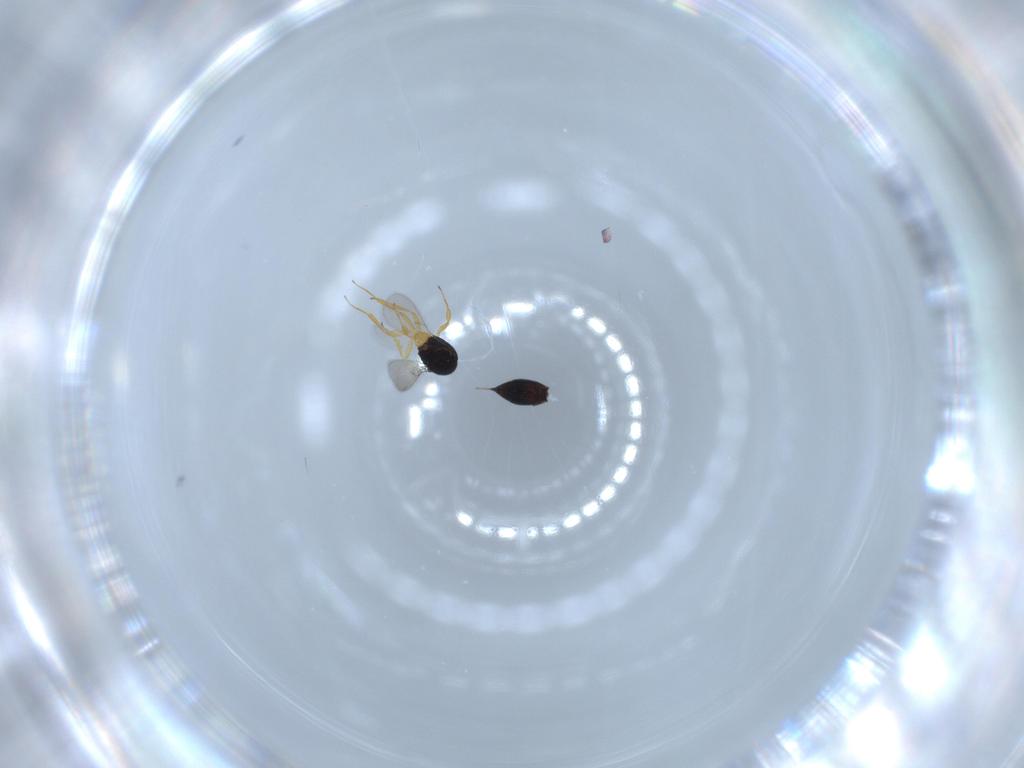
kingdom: Animalia
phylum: Arthropoda
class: Insecta
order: Hymenoptera
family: Scelionidae
